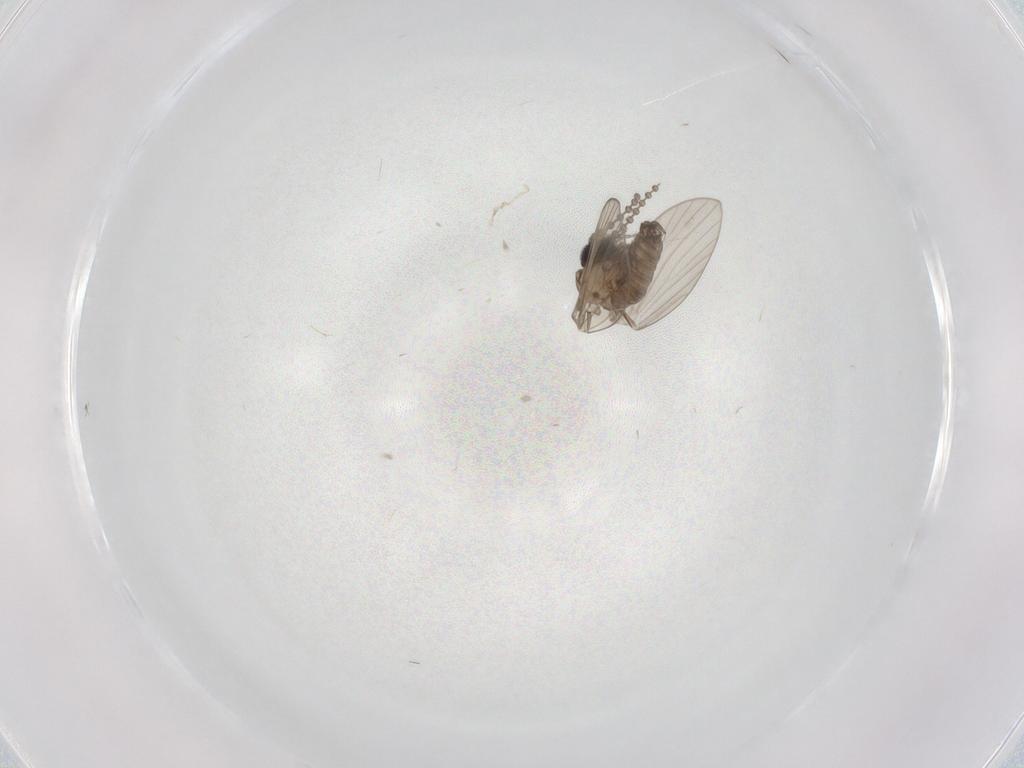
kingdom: Animalia
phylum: Arthropoda
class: Insecta
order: Diptera
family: Psychodidae
